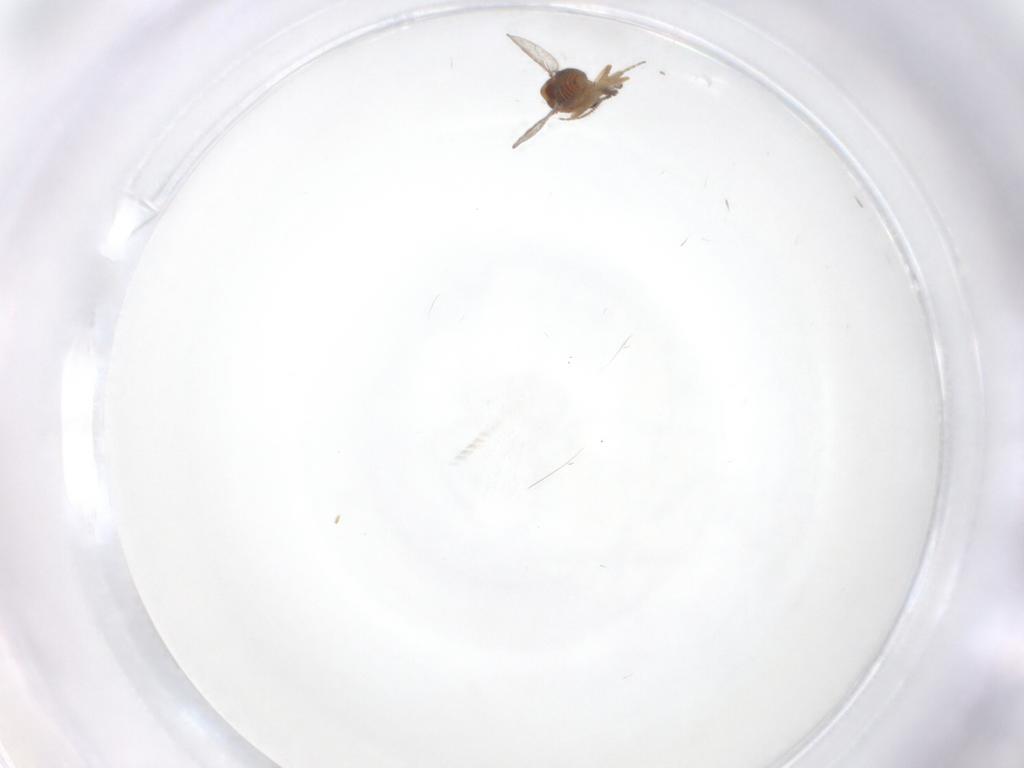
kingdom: Animalia
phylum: Arthropoda
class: Insecta
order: Diptera
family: Ceratopogonidae
